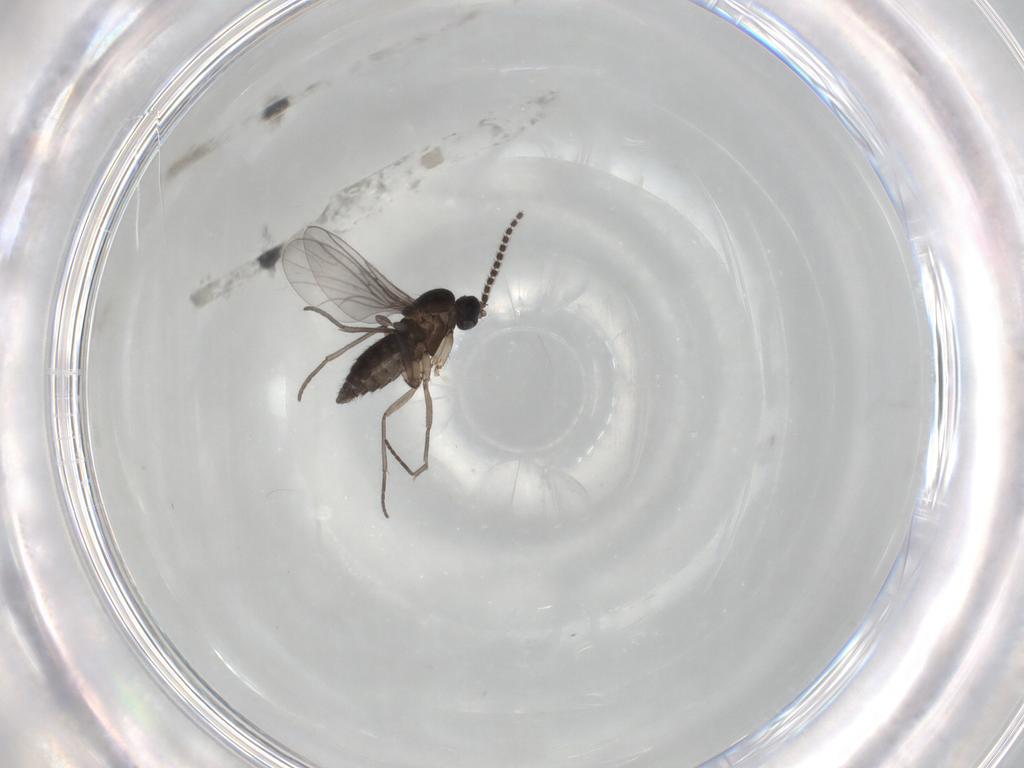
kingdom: Animalia
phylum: Arthropoda
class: Insecta
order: Diptera
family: Cecidomyiidae
